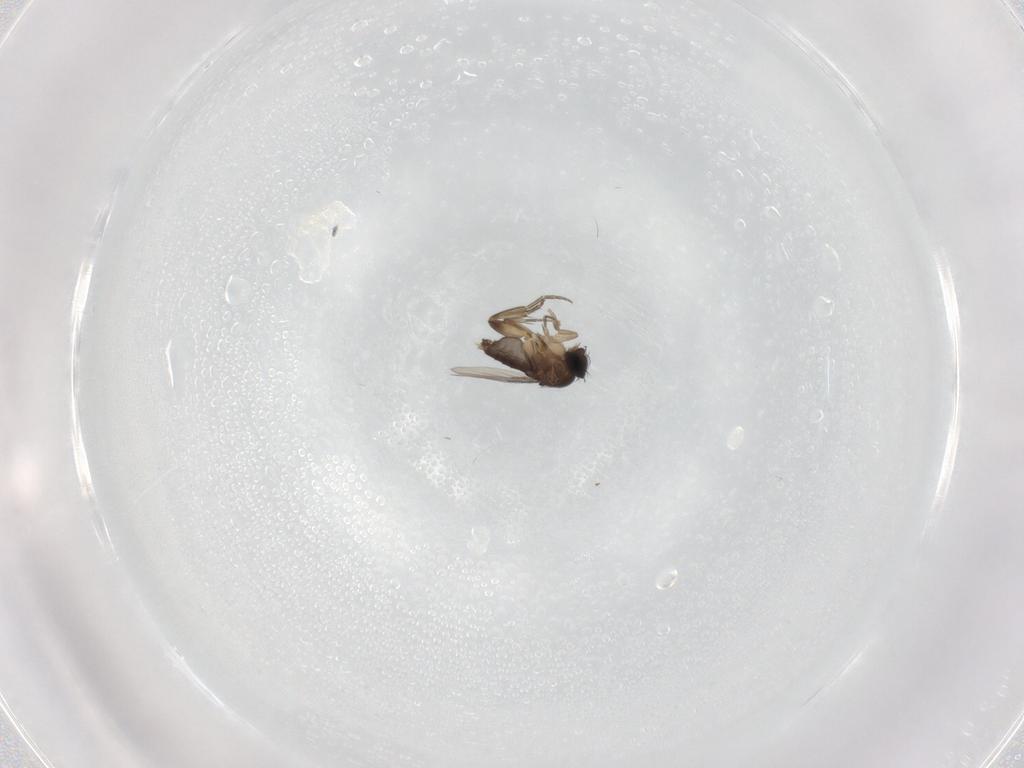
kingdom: Animalia
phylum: Arthropoda
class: Insecta
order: Diptera
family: Phoridae
